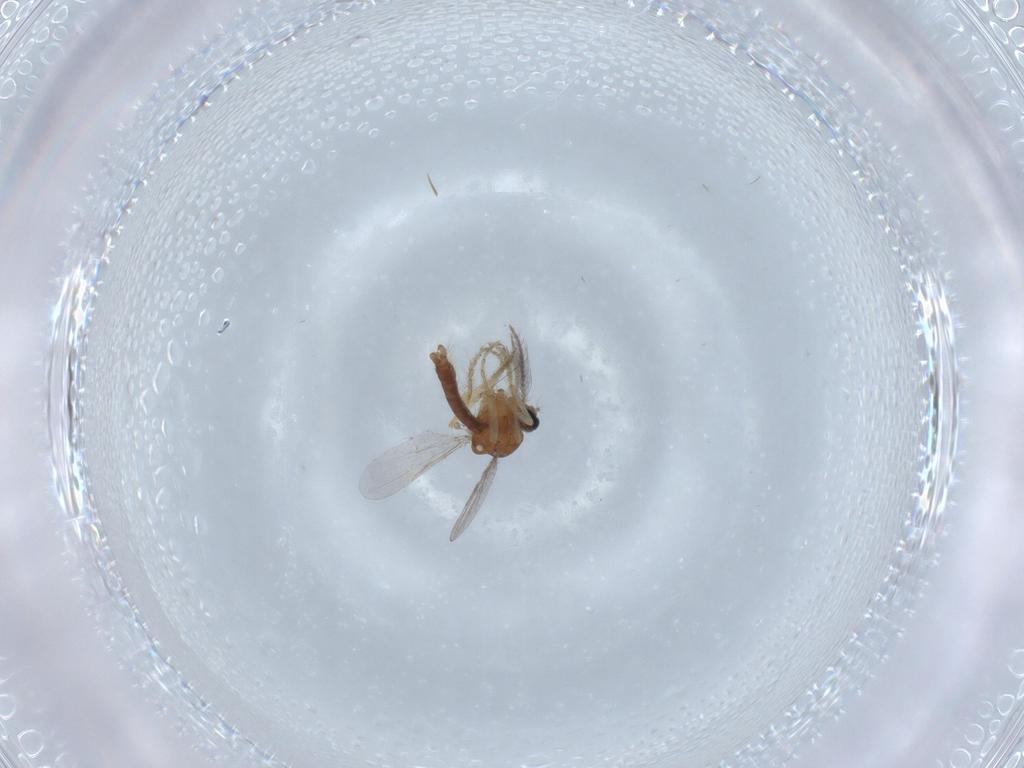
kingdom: Animalia
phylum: Arthropoda
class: Insecta
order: Diptera
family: Ceratopogonidae
